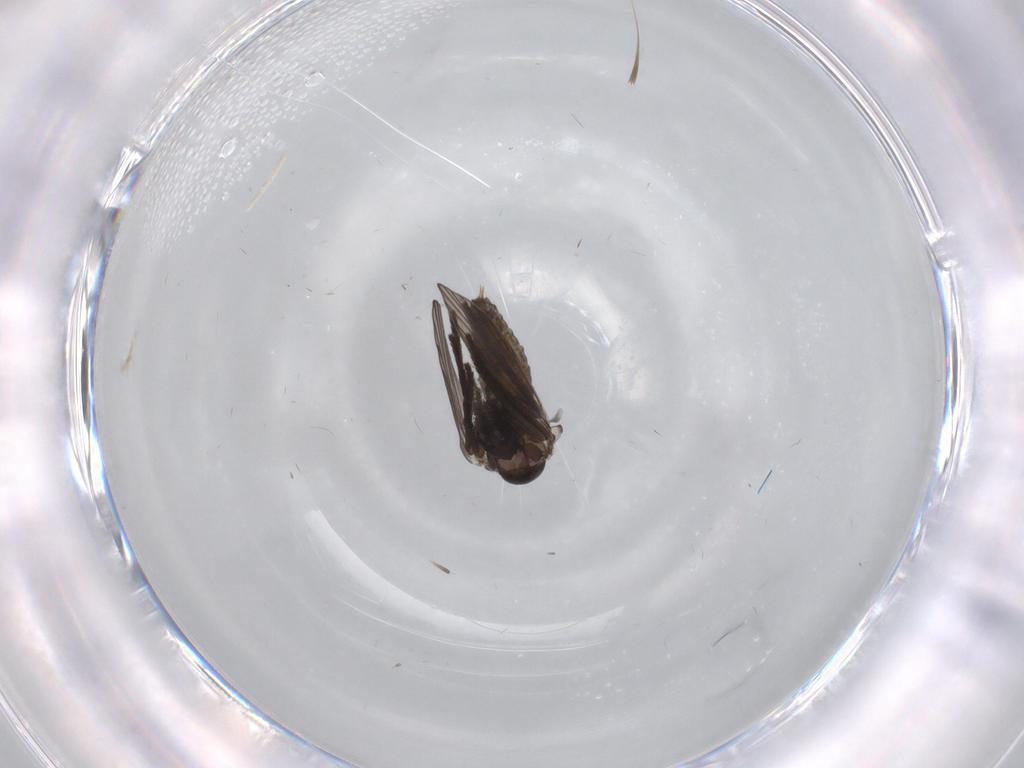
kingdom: Animalia
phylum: Arthropoda
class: Insecta
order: Diptera
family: Psychodidae
